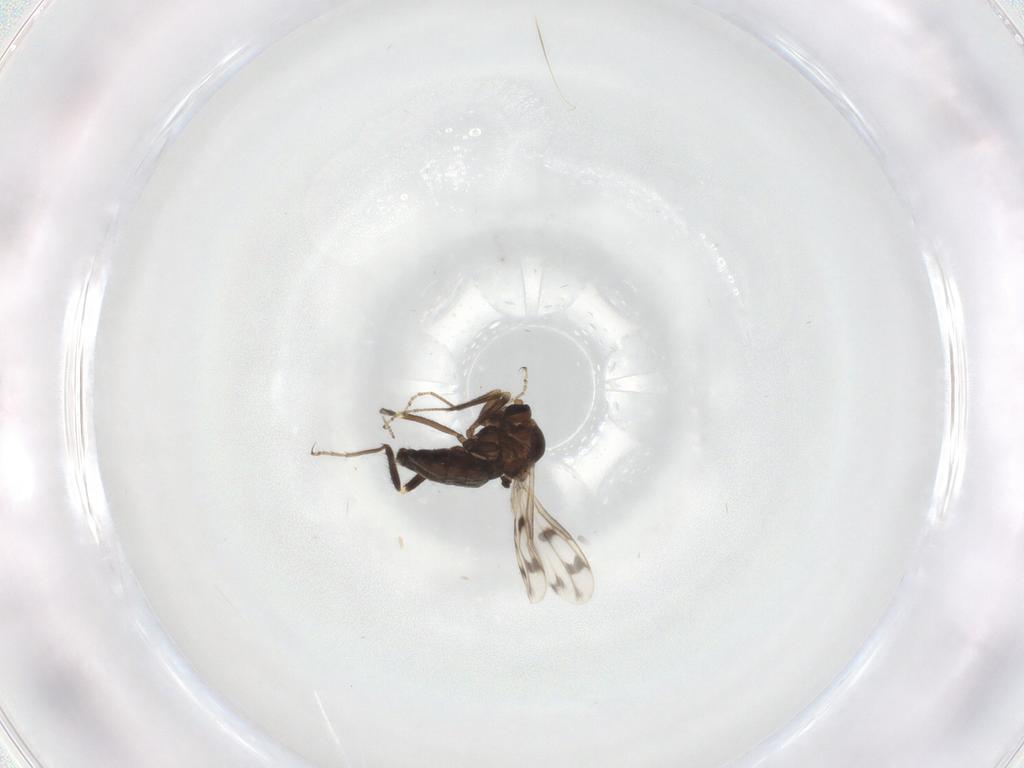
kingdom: Animalia
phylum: Arthropoda
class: Insecta
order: Diptera
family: Ceratopogonidae
